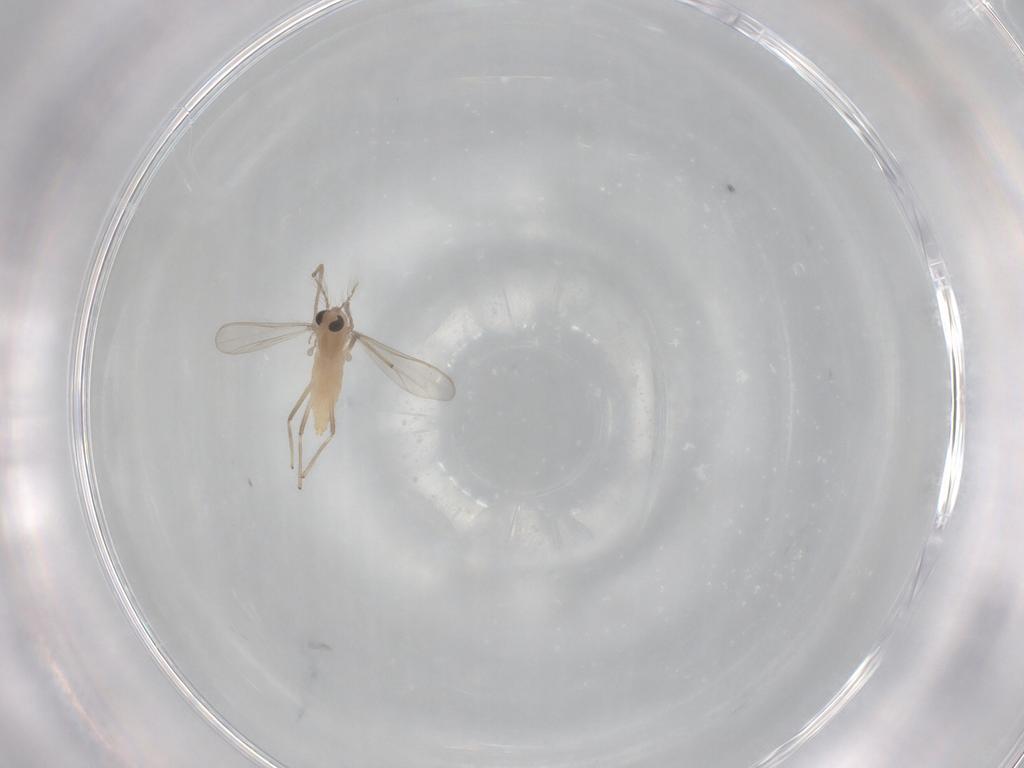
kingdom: Animalia
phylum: Arthropoda
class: Insecta
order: Diptera
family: Chironomidae
